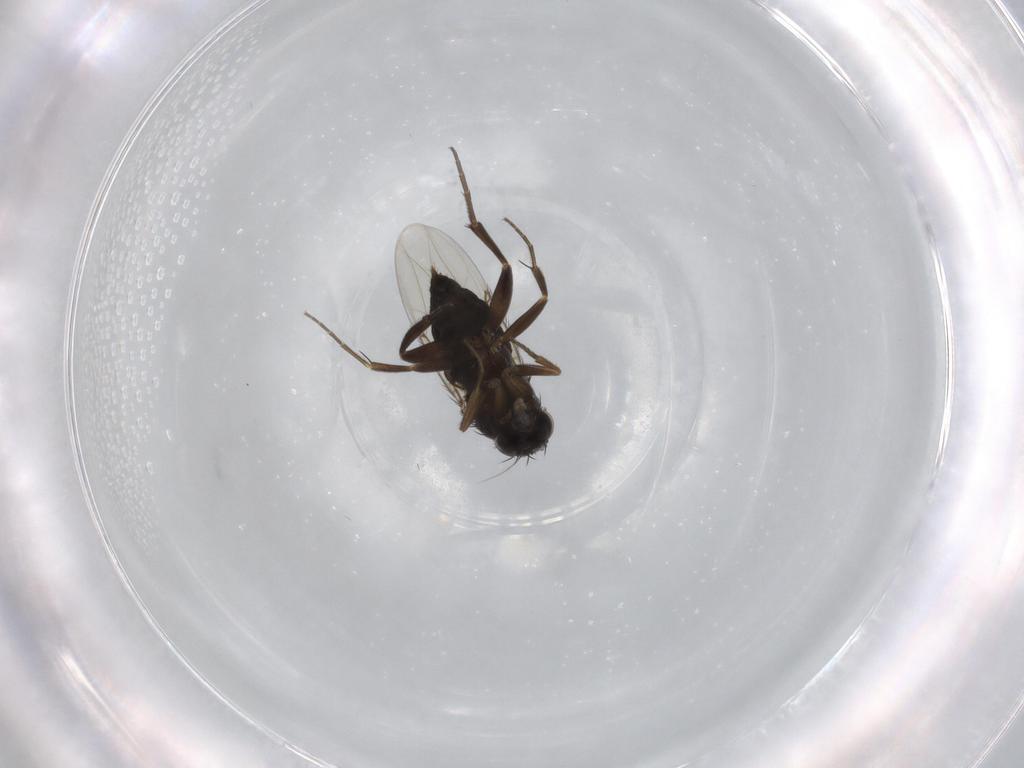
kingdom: Animalia
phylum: Arthropoda
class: Insecta
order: Diptera
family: Phoridae
